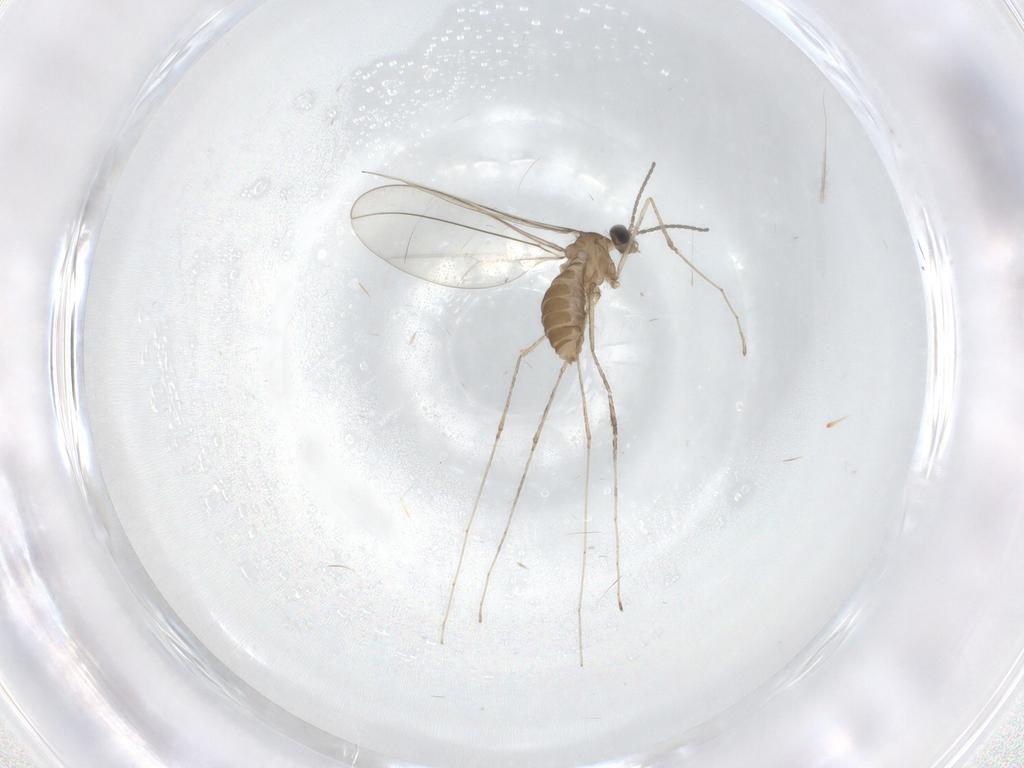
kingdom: Animalia
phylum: Arthropoda
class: Insecta
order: Diptera
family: Cecidomyiidae
